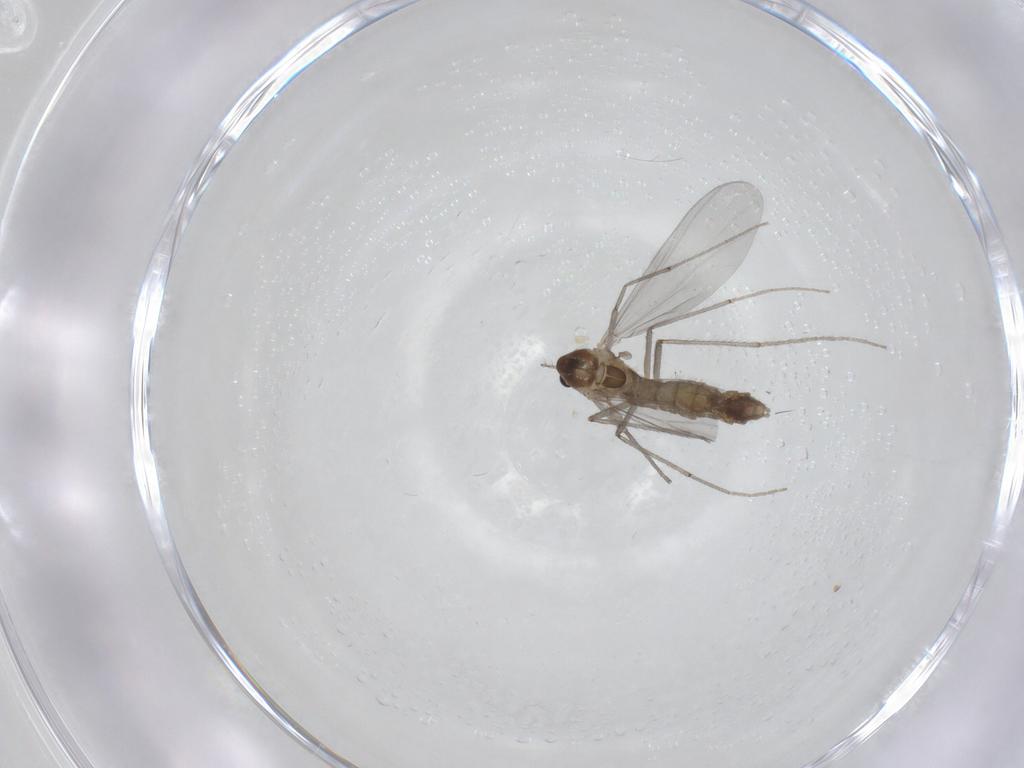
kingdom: Animalia
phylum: Arthropoda
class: Insecta
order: Diptera
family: Chironomidae
